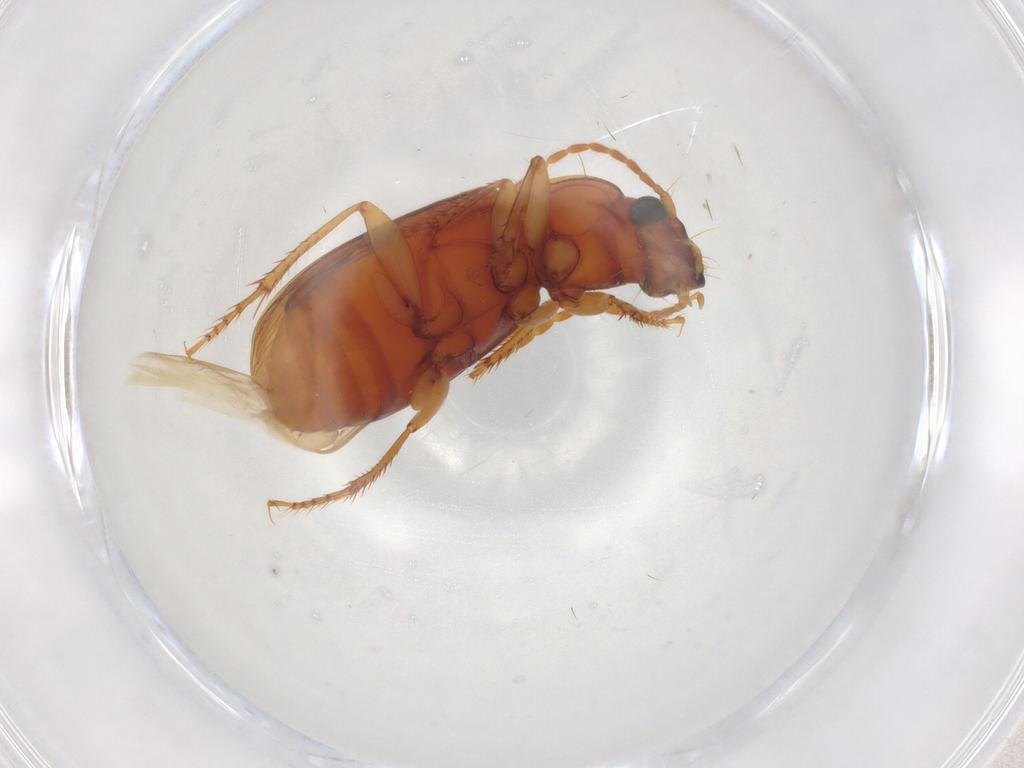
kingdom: Animalia
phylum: Arthropoda
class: Insecta
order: Coleoptera
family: Carabidae
